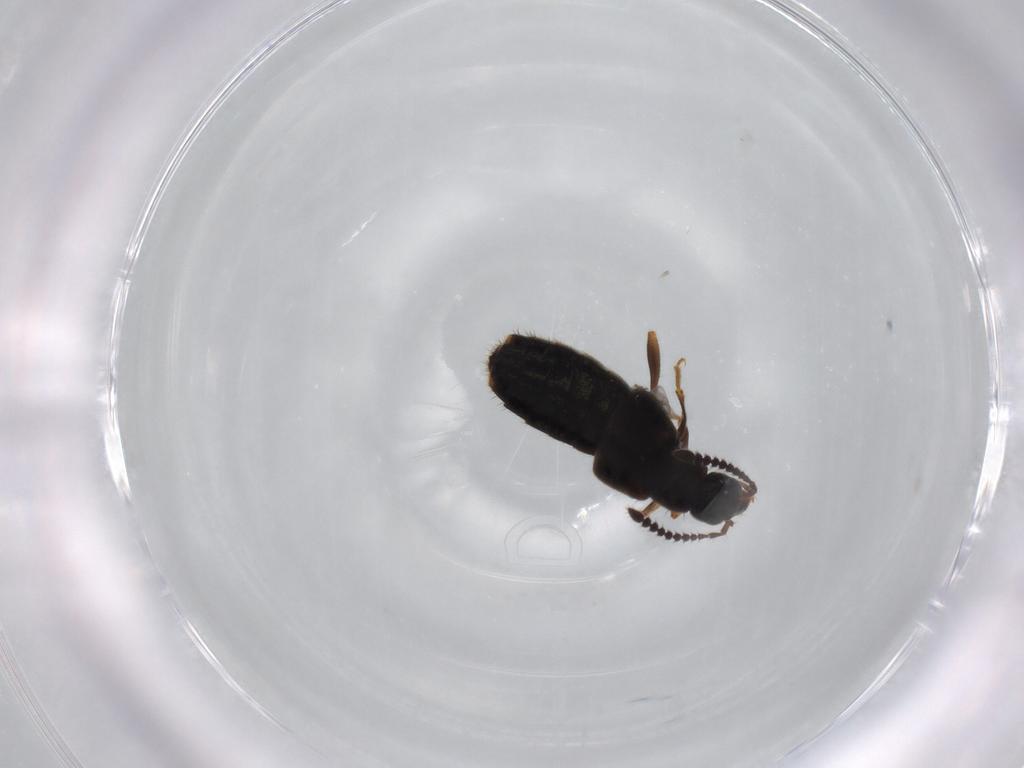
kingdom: Animalia
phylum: Arthropoda
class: Insecta
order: Coleoptera
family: Staphylinidae
